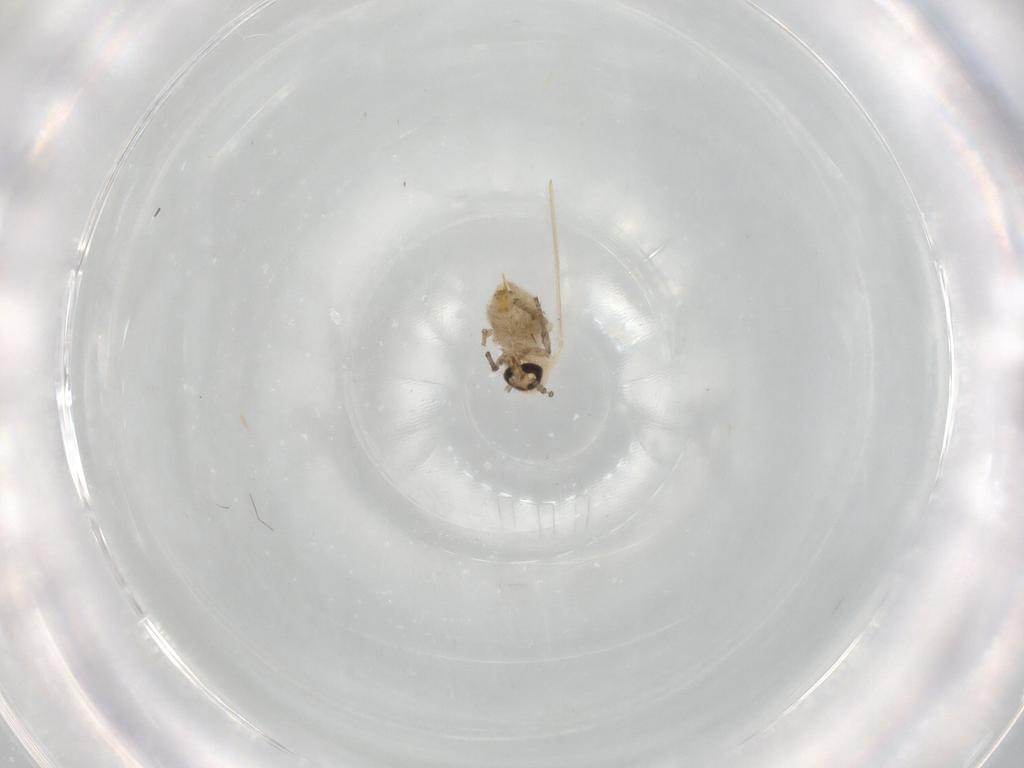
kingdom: Animalia
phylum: Arthropoda
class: Insecta
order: Diptera
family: Psychodidae
